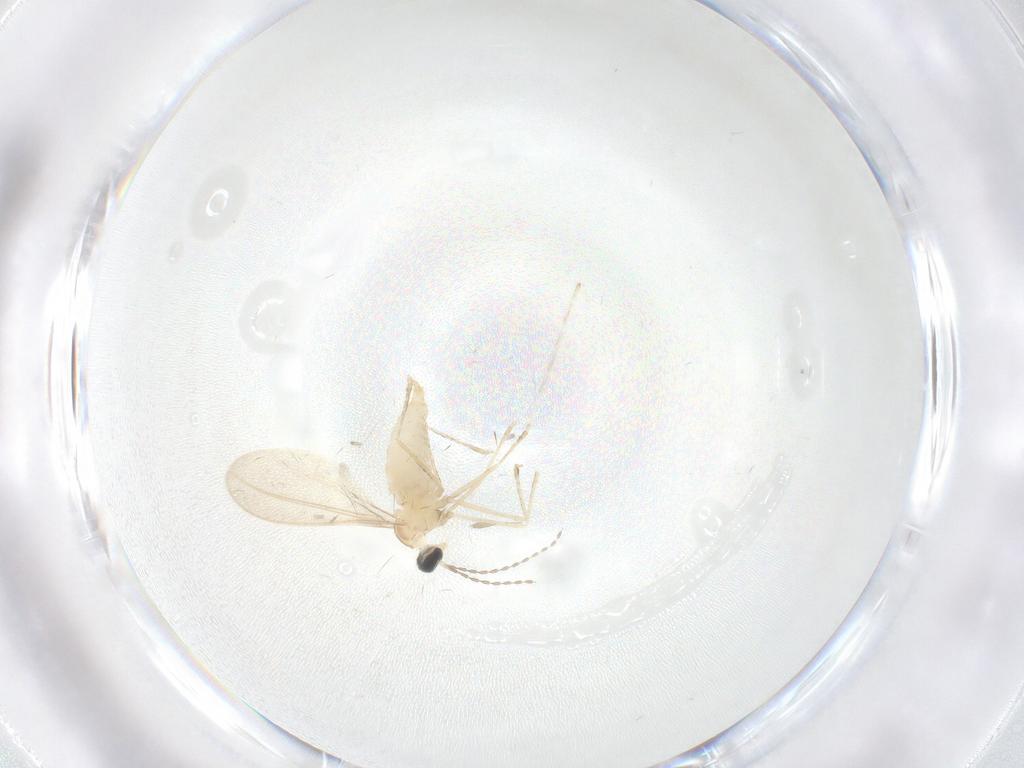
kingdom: Animalia
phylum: Arthropoda
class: Insecta
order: Diptera
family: Cecidomyiidae
